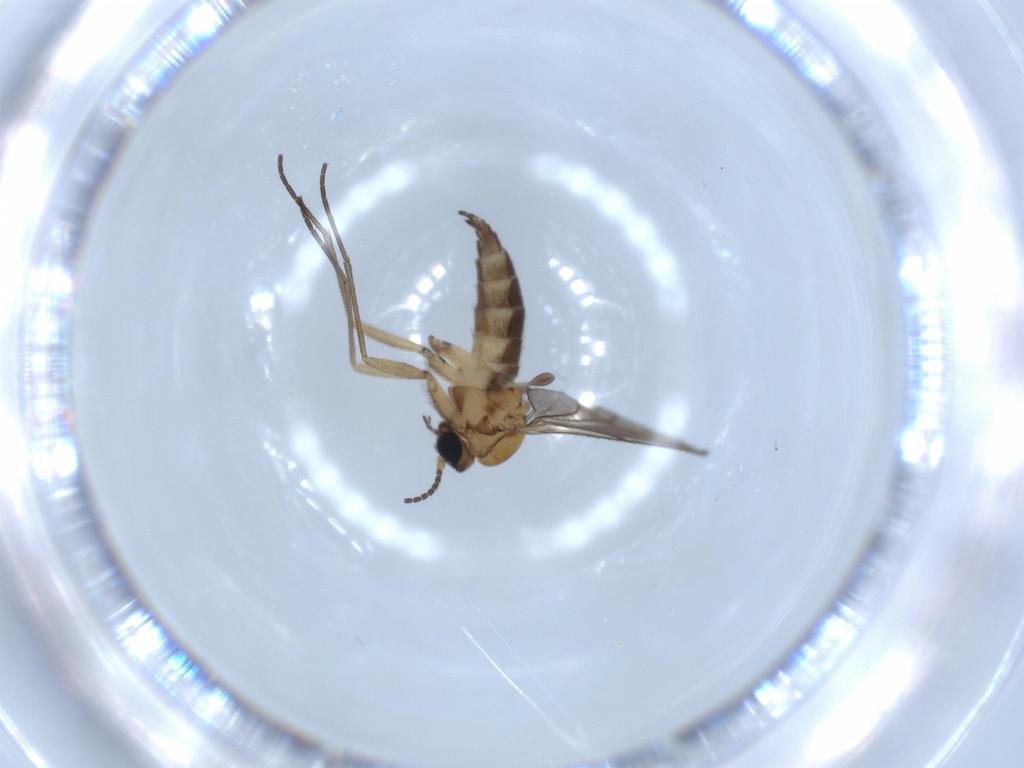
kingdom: Animalia
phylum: Arthropoda
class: Insecta
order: Diptera
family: Sciaridae
